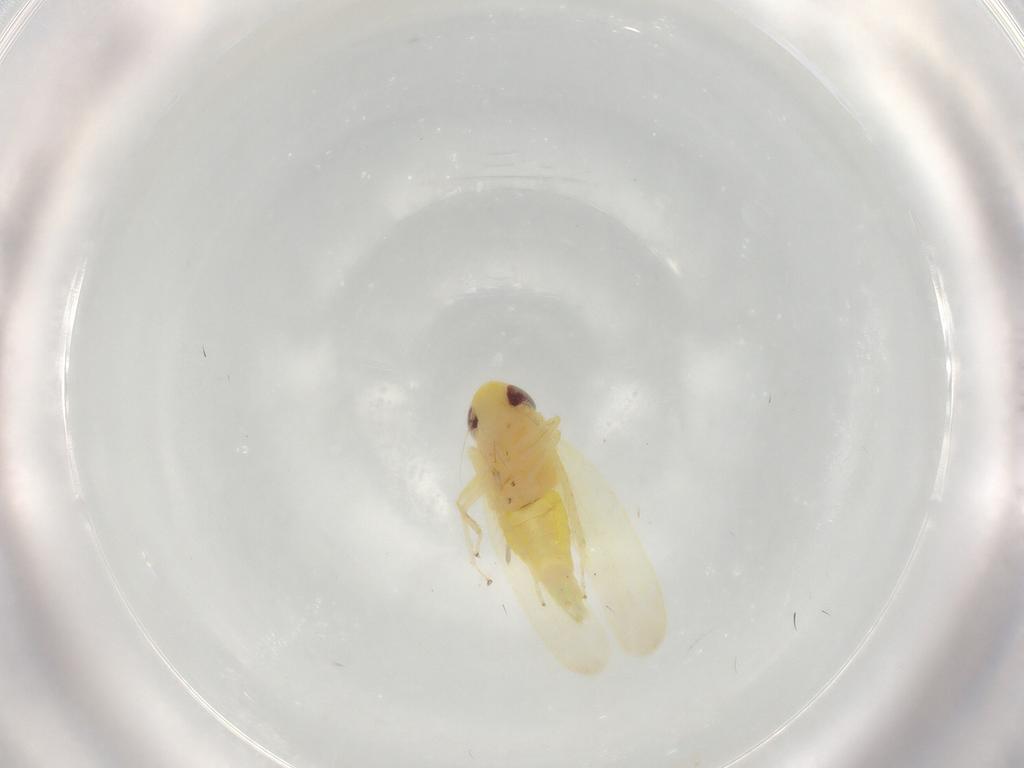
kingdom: Animalia
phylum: Arthropoda
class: Insecta
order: Hemiptera
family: Cicadellidae
